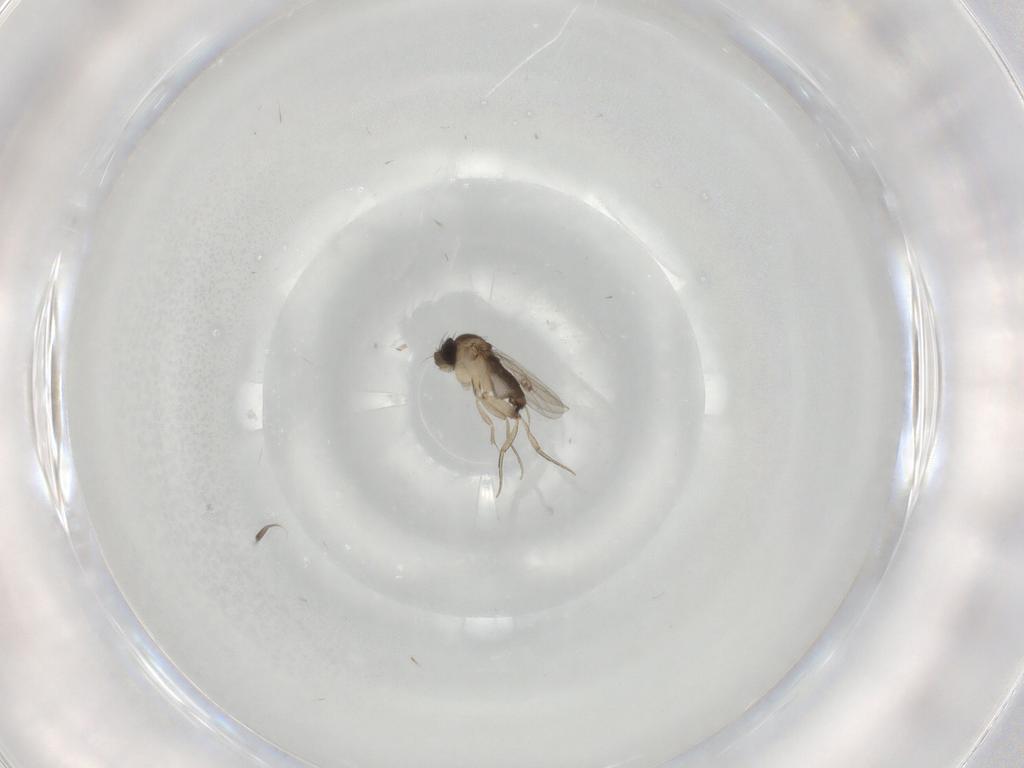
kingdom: Animalia
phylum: Arthropoda
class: Insecta
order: Diptera
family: Phoridae
